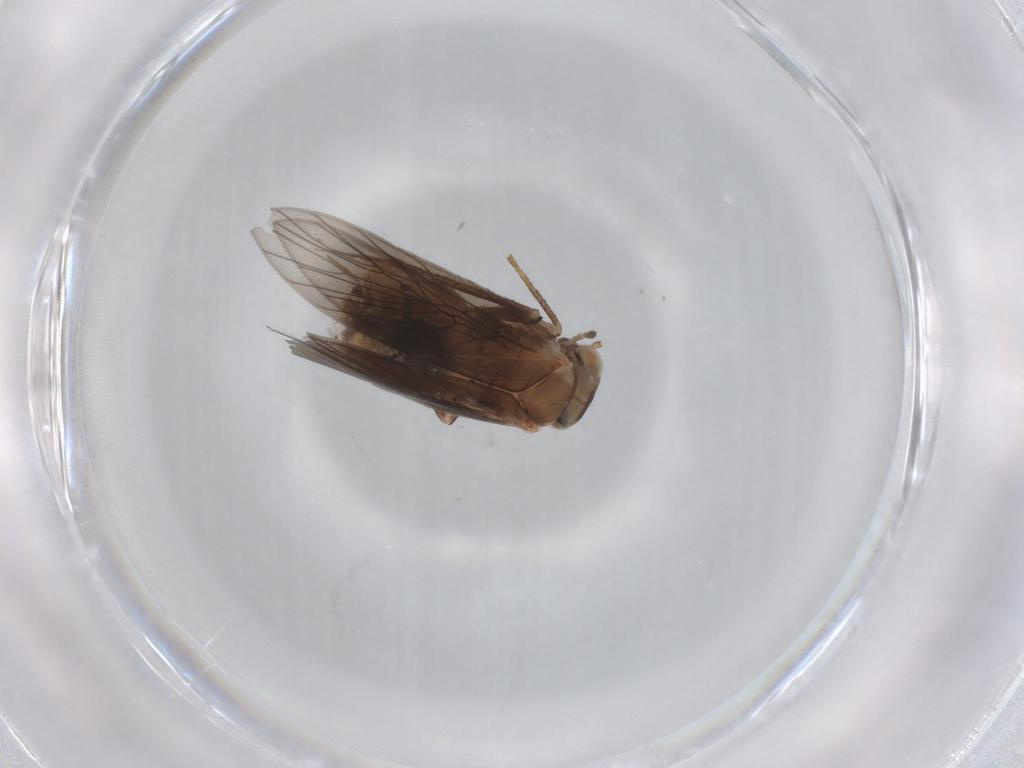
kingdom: Animalia
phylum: Arthropoda
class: Insecta
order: Psocodea
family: Lepidopsocidae
